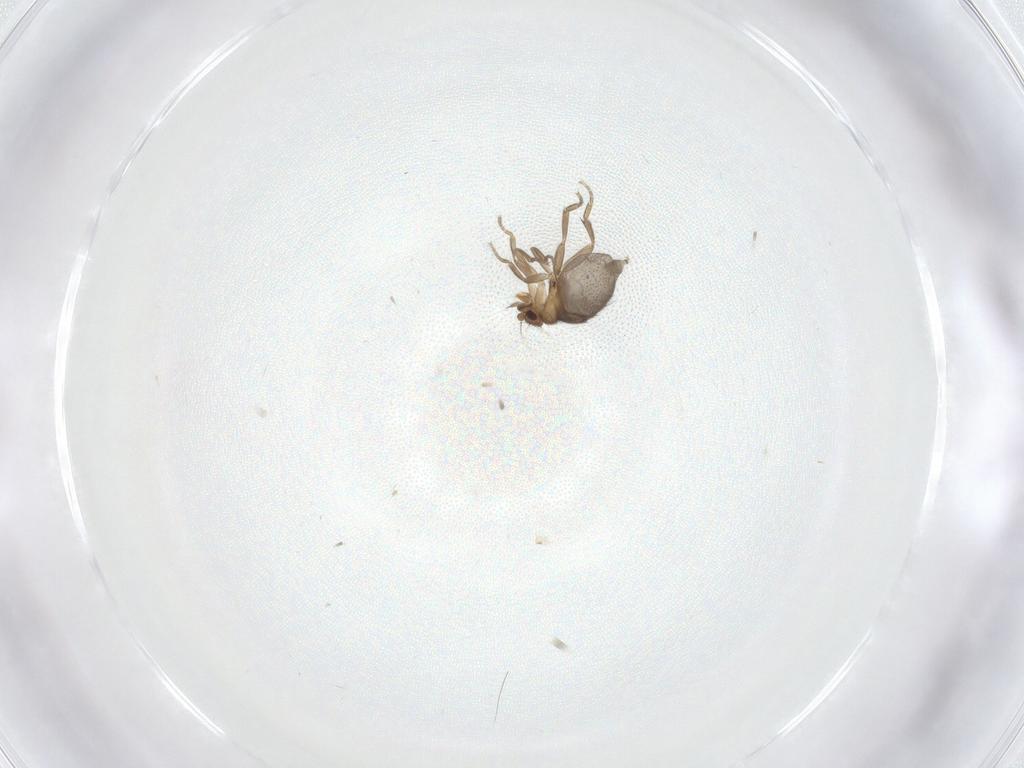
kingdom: Animalia
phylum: Arthropoda
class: Insecta
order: Diptera
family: Phoridae
